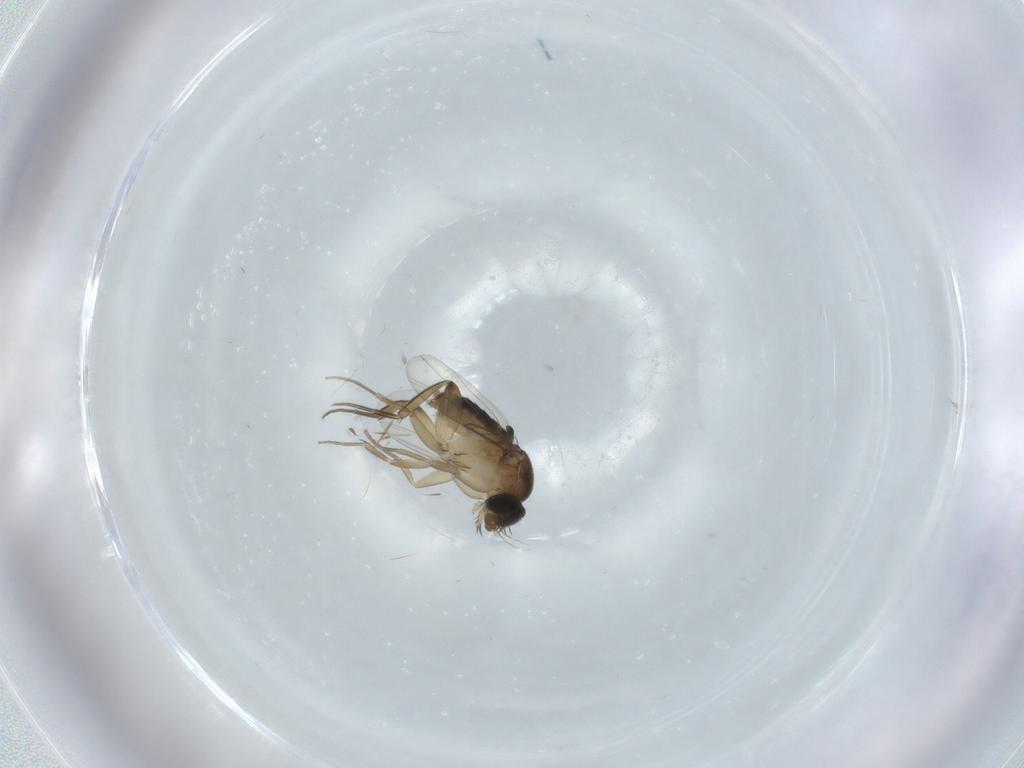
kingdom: Animalia
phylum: Arthropoda
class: Insecta
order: Diptera
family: Phoridae
